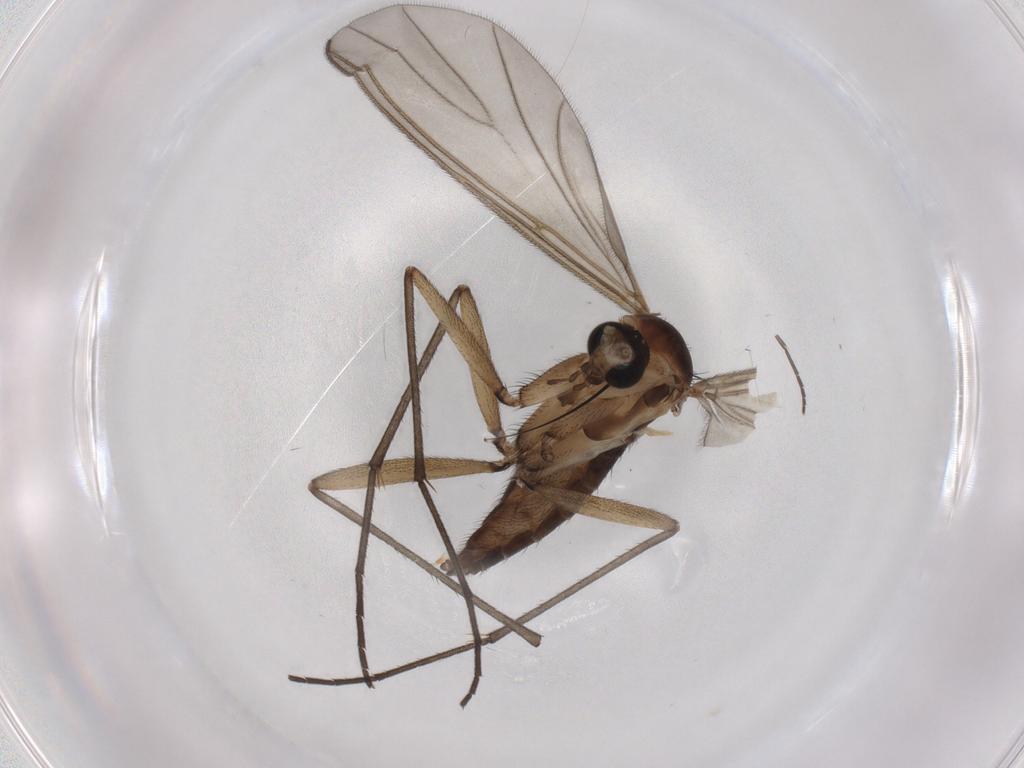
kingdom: Animalia
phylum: Arthropoda
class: Insecta
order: Diptera
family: Sciaridae
